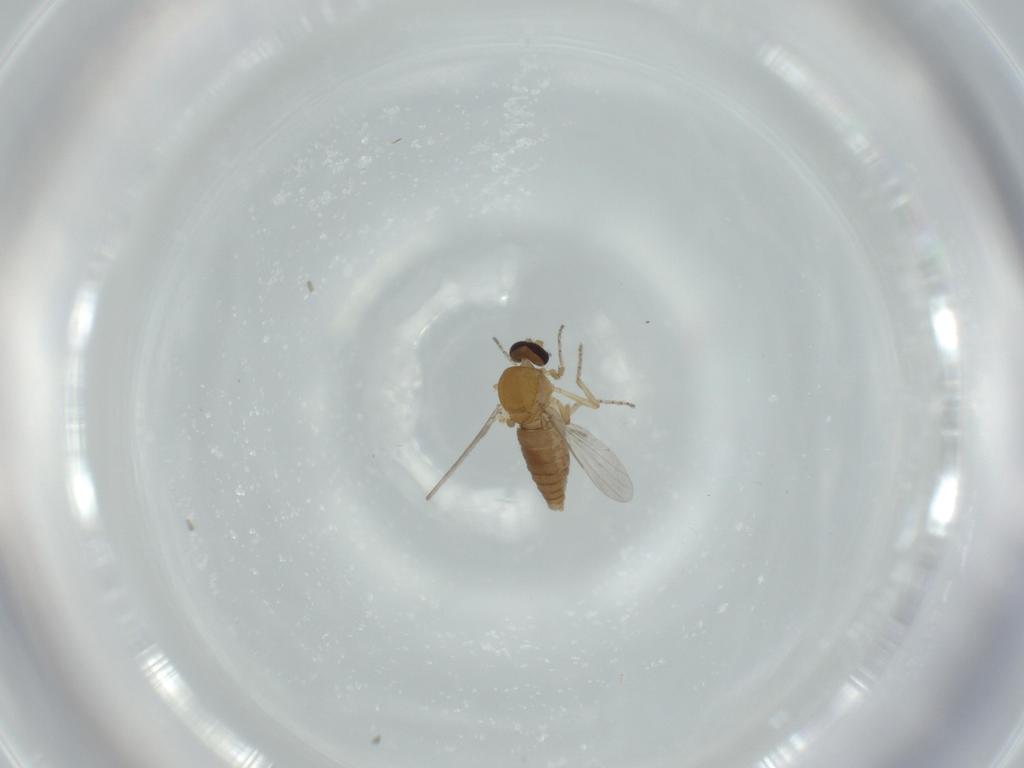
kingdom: Animalia
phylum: Arthropoda
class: Insecta
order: Diptera
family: Ceratopogonidae
